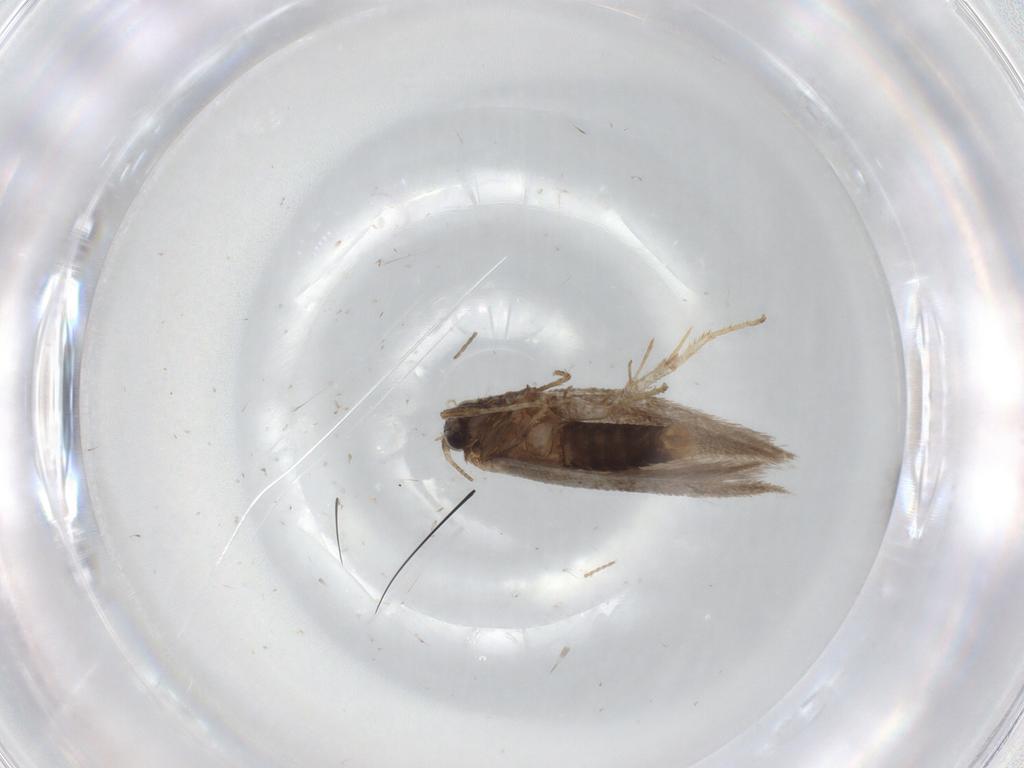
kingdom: Animalia
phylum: Arthropoda
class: Insecta
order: Lepidoptera
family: Nepticulidae
